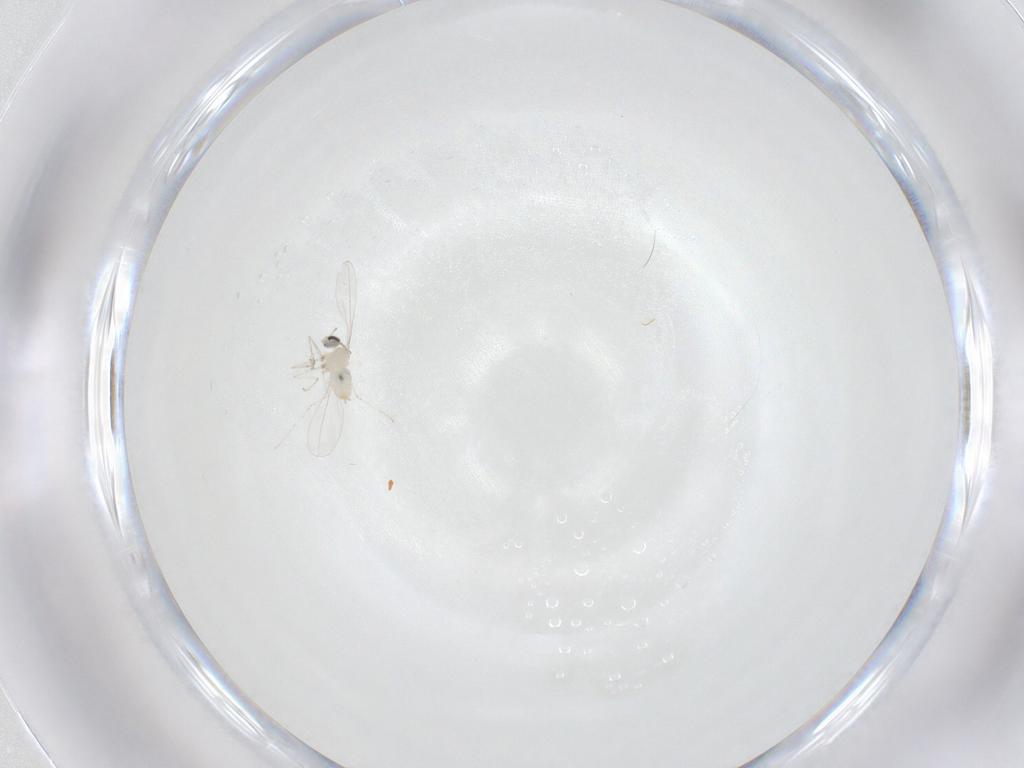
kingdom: Animalia
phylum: Arthropoda
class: Insecta
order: Diptera
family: Cecidomyiidae
